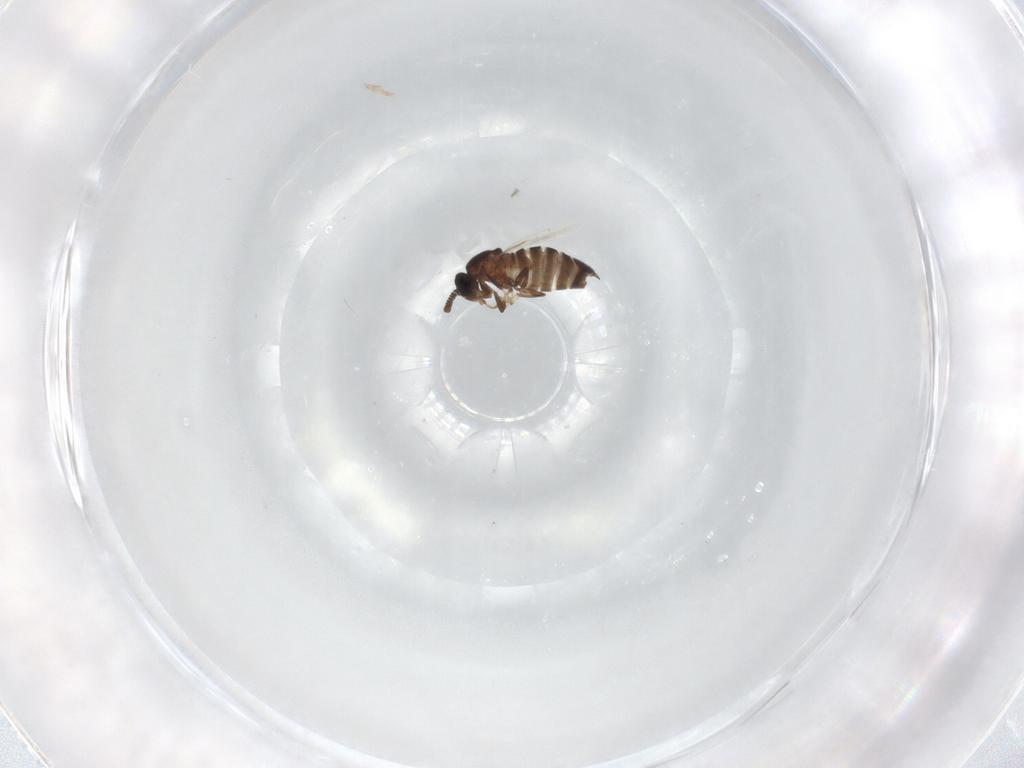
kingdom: Animalia
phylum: Arthropoda
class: Insecta
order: Diptera
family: Scatopsidae
